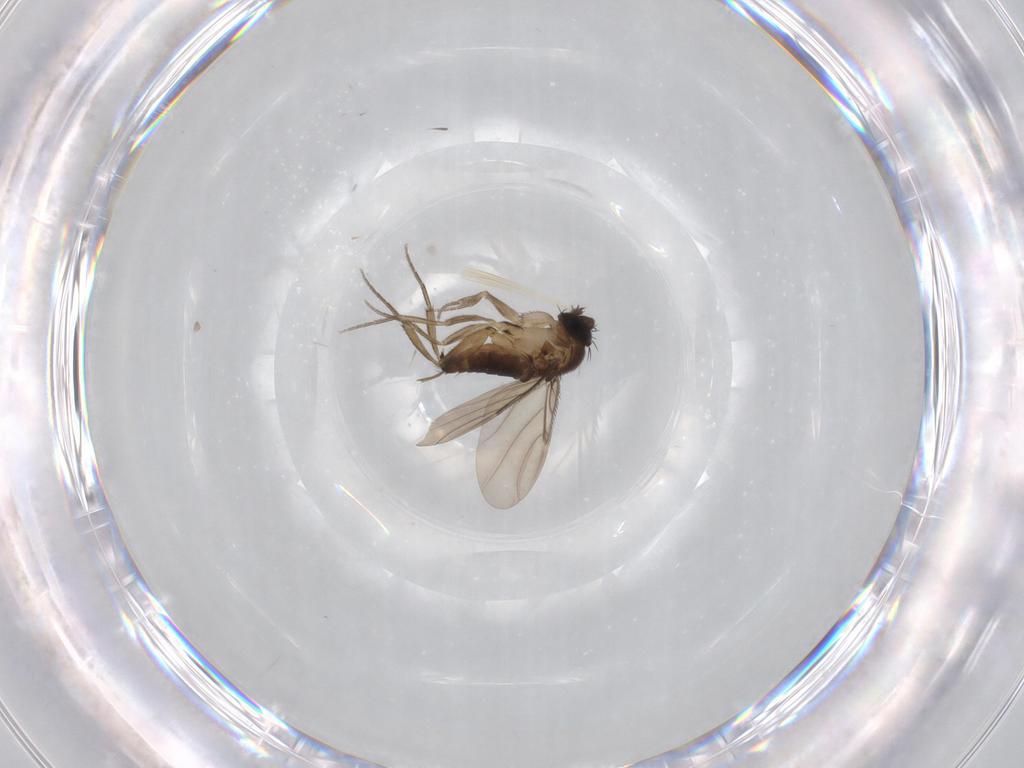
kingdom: Animalia
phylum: Arthropoda
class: Insecta
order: Diptera
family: Phoridae
